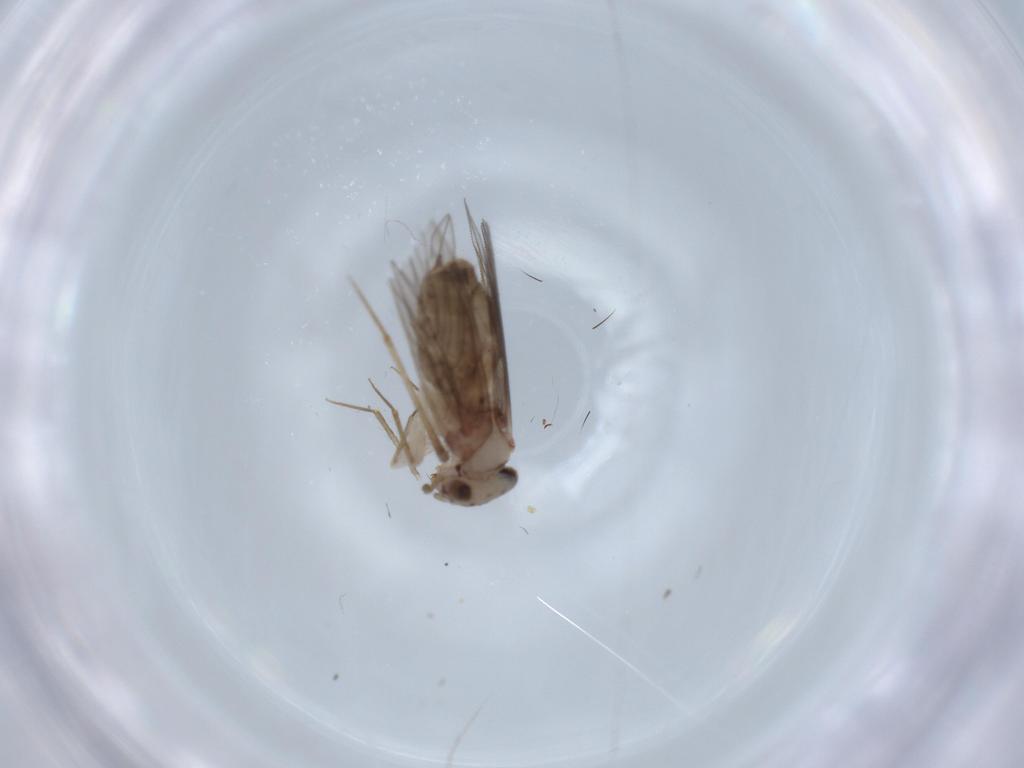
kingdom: Animalia
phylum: Arthropoda
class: Insecta
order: Psocodea
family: Lepidopsocidae
